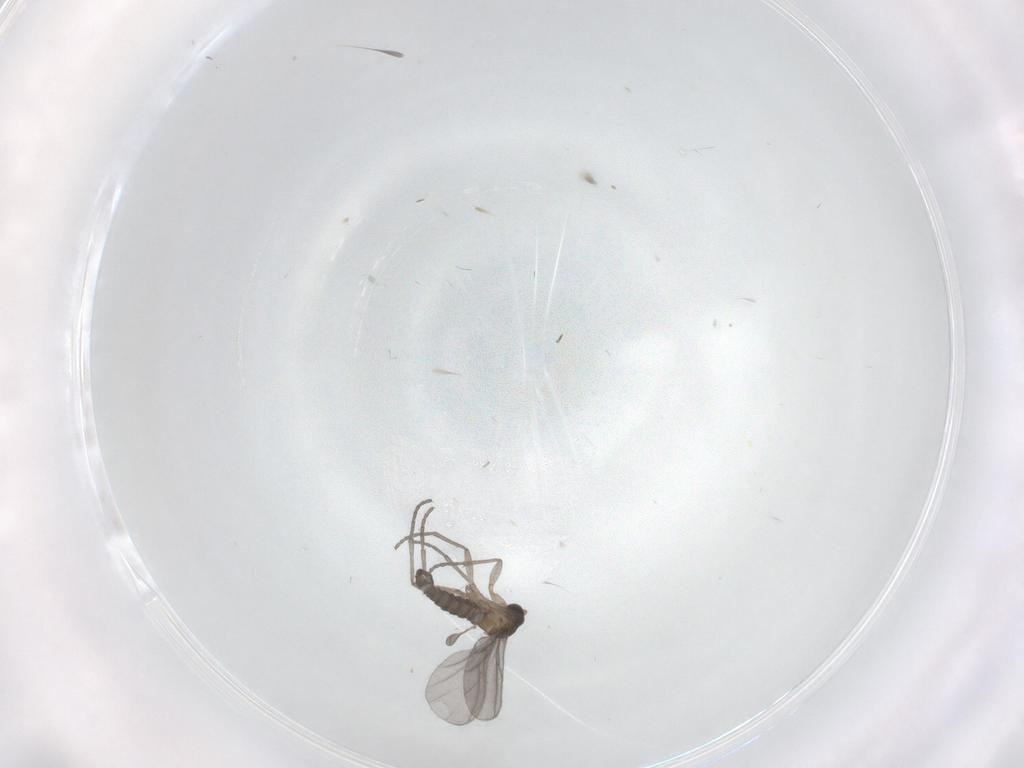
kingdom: Animalia
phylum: Arthropoda
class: Insecta
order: Diptera
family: Sciaridae
